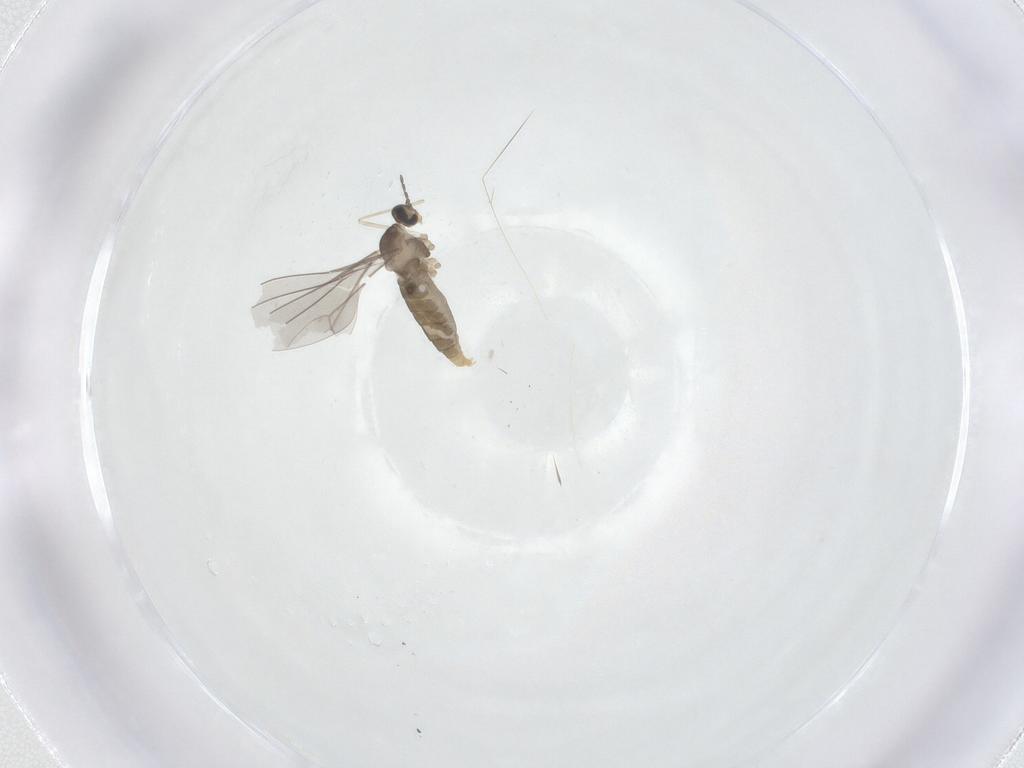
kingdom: Animalia
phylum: Arthropoda
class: Insecta
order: Diptera
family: Cecidomyiidae
